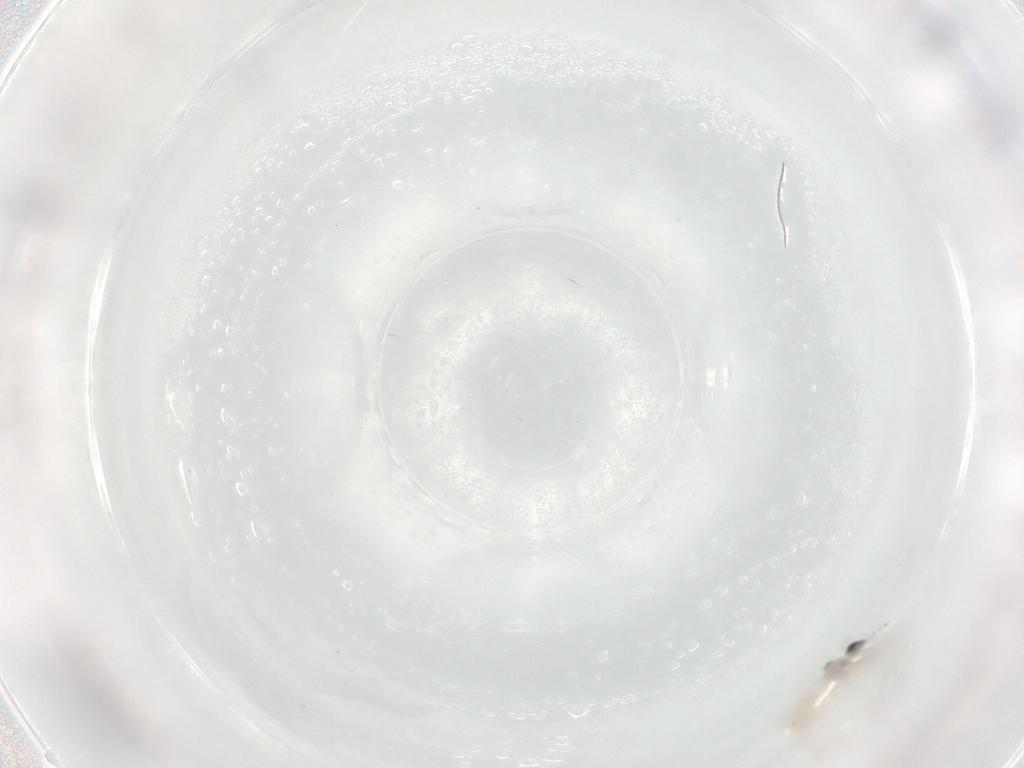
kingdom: Animalia
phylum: Arthropoda
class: Insecta
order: Diptera
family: Cecidomyiidae
